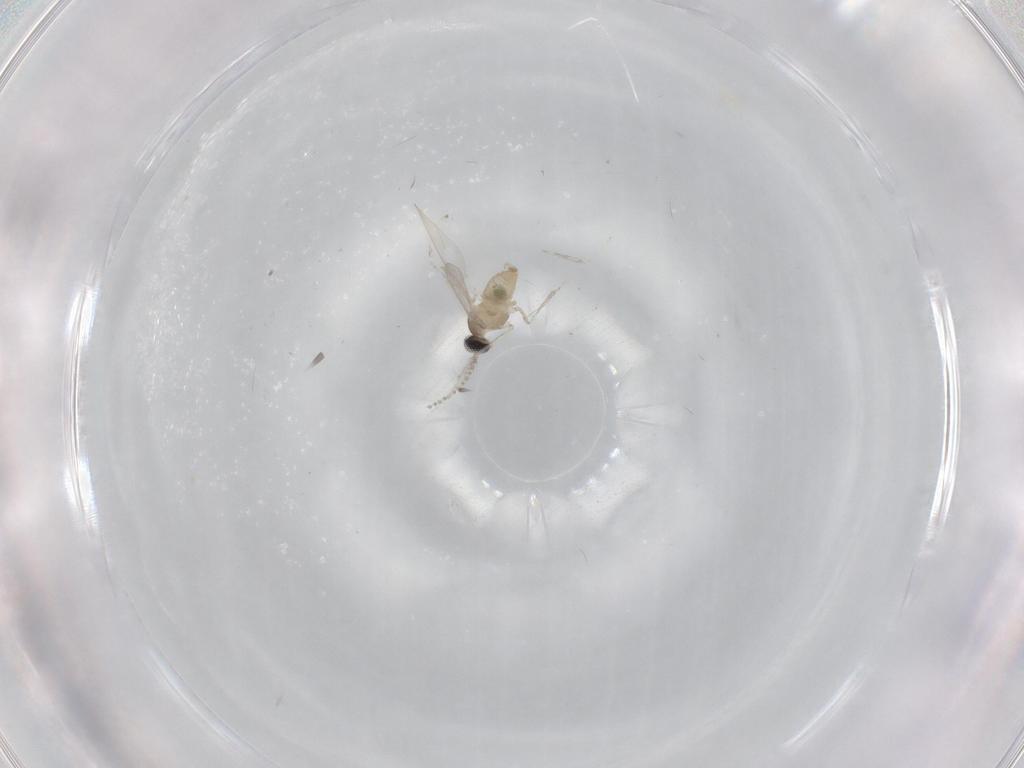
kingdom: Animalia
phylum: Arthropoda
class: Insecta
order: Diptera
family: Cecidomyiidae
